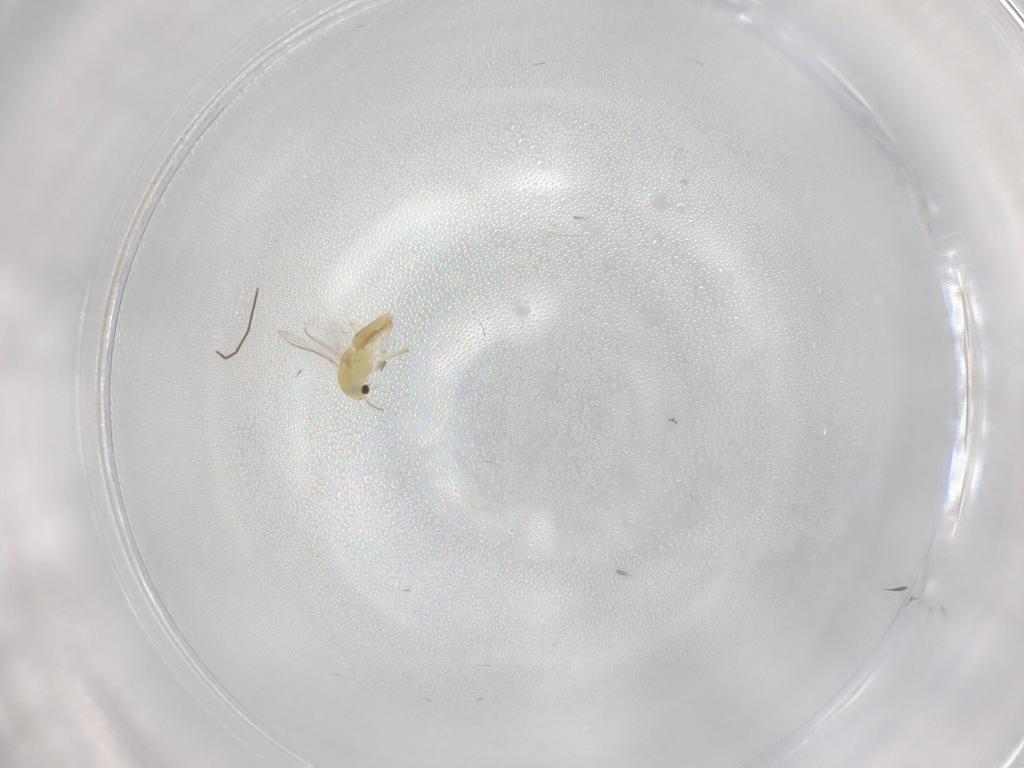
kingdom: Animalia
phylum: Arthropoda
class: Insecta
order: Diptera
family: Chironomidae
